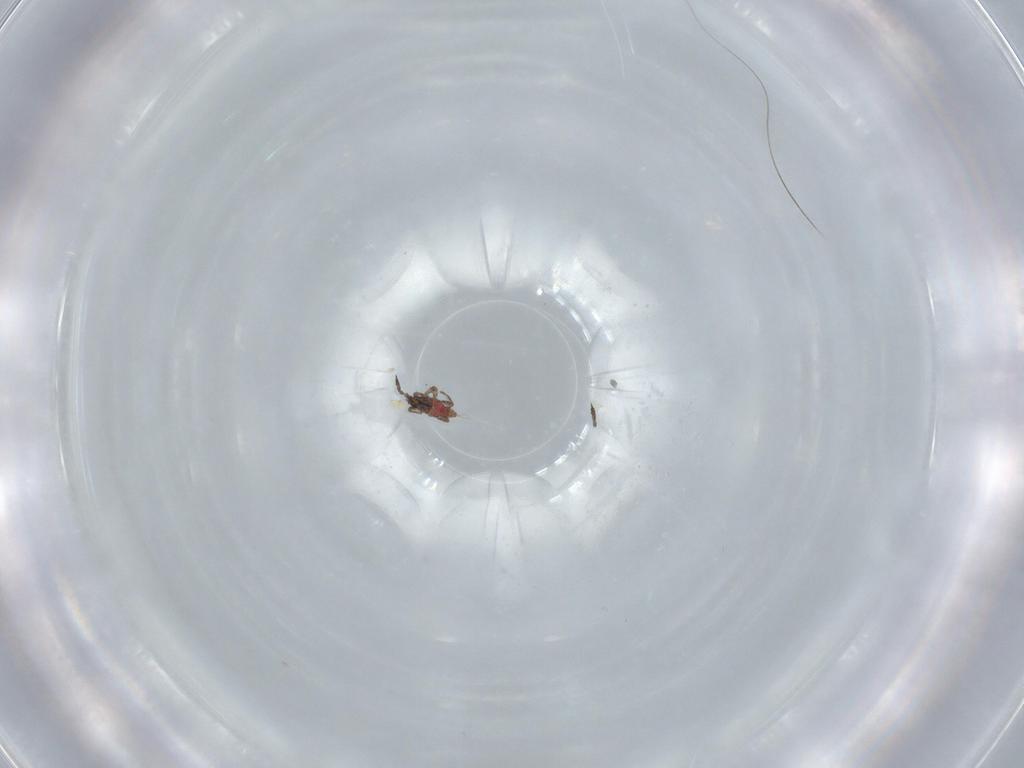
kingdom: Animalia
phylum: Arthropoda
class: Insecta
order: Thysanoptera
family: Phlaeothripidae
